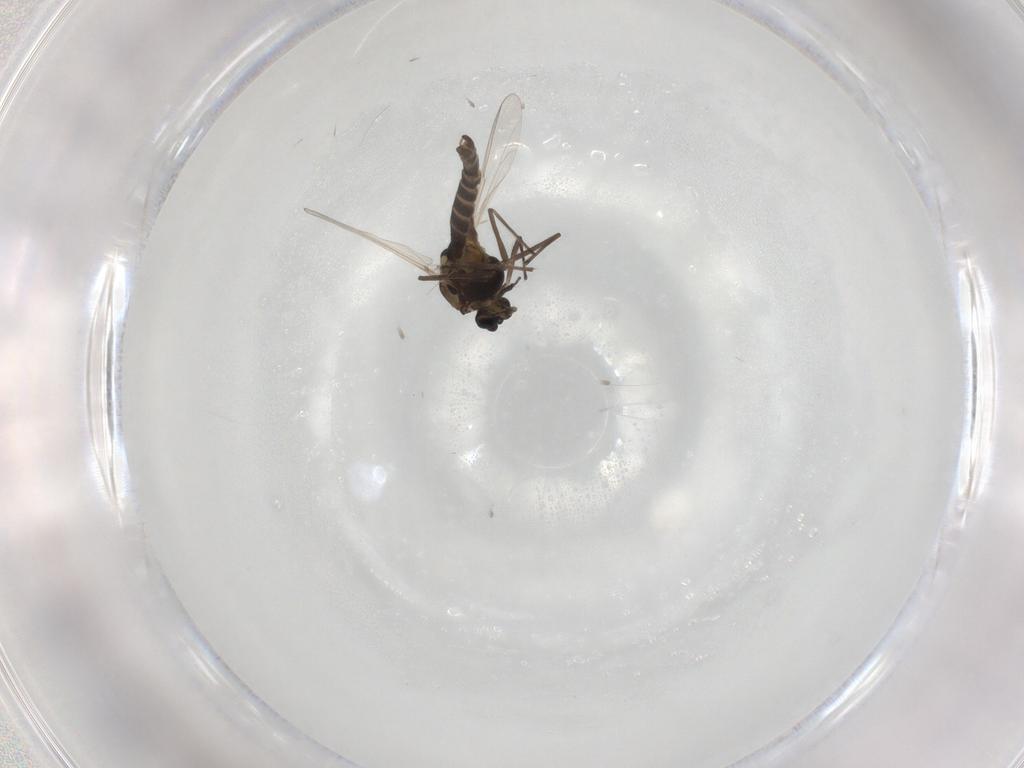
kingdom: Animalia
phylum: Arthropoda
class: Insecta
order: Diptera
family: Chironomidae
